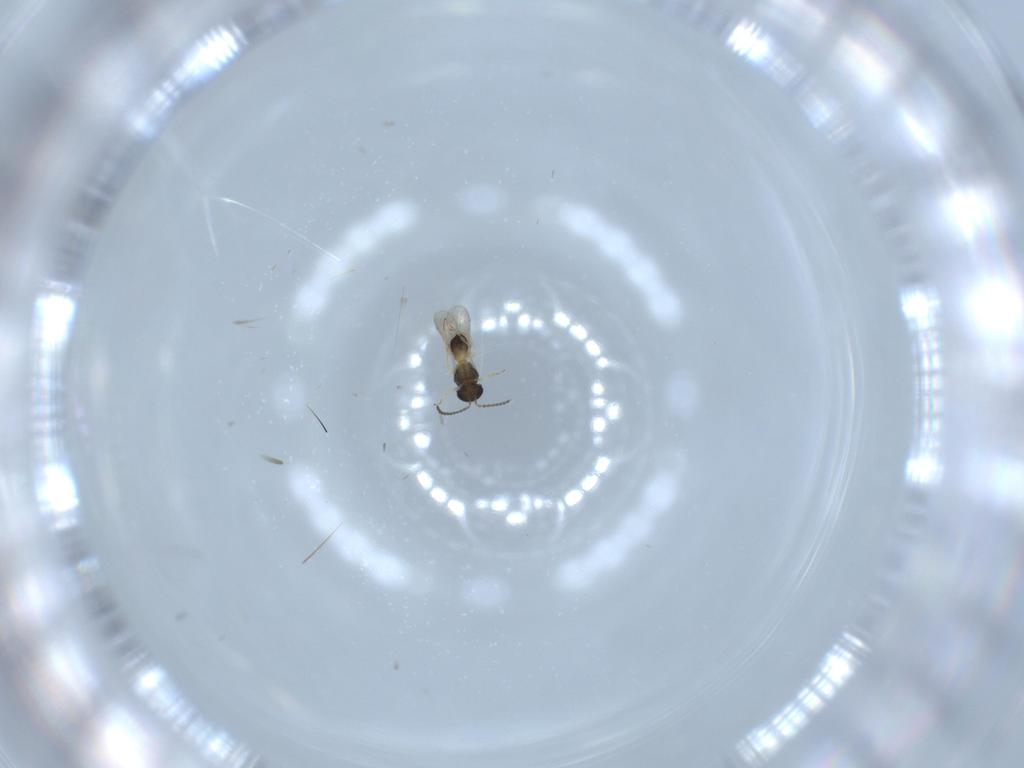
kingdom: Animalia
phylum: Arthropoda
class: Insecta
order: Hymenoptera
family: Scelionidae
